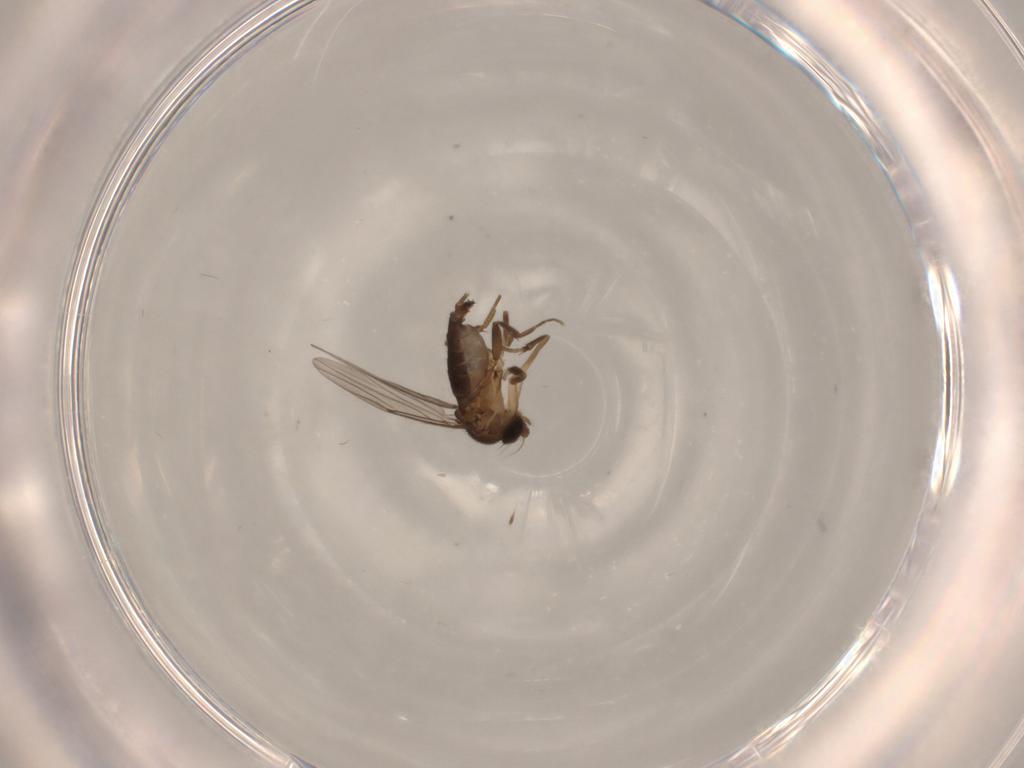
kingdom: Animalia
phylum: Arthropoda
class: Insecta
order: Diptera
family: Phoridae
